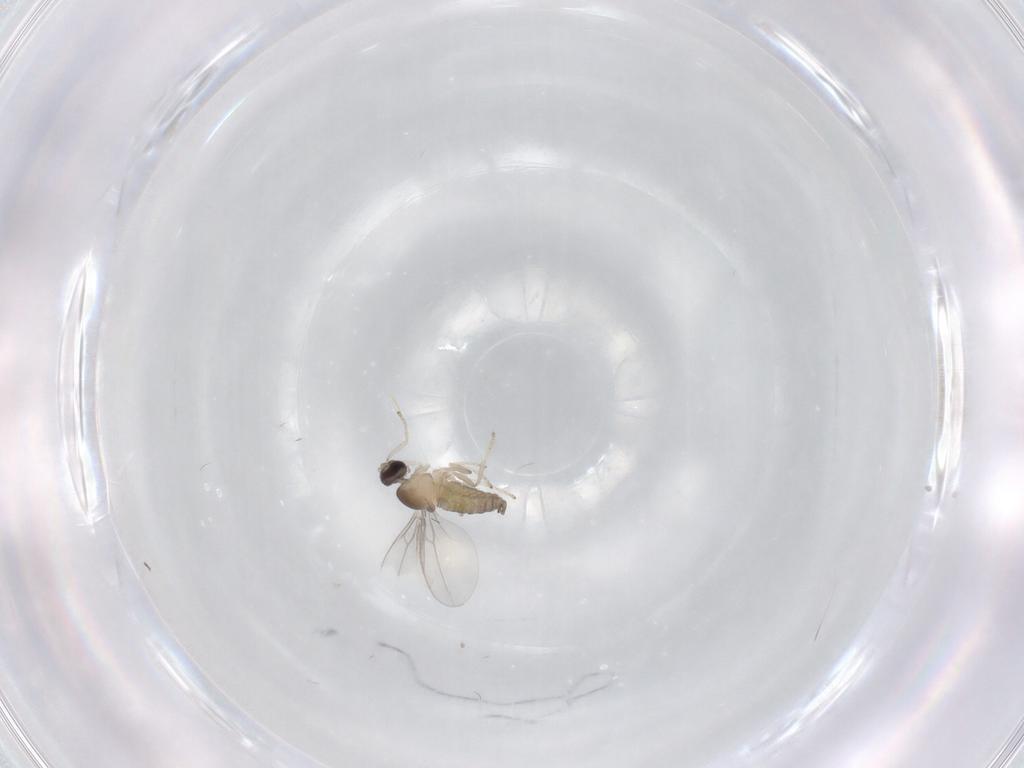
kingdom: Animalia
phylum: Arthropoda
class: Insecta
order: Diptera
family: Cecidomyiidae
